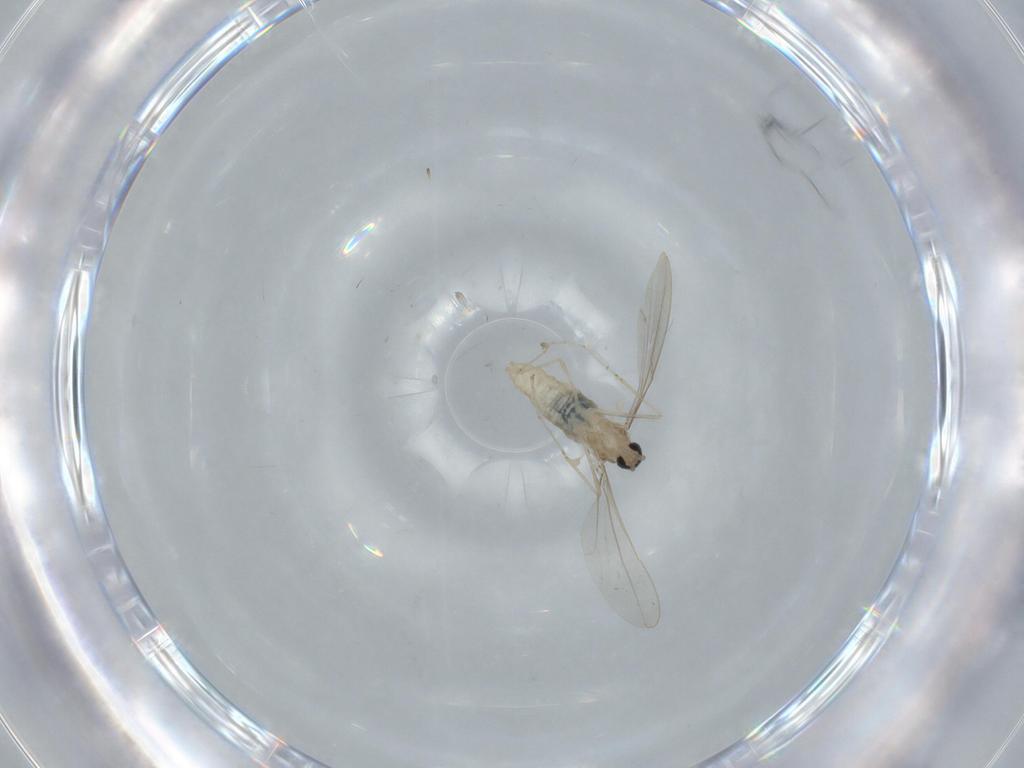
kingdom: Animalia
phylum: Arthropoda
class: Insecta
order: Diptera
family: Cecidomyiidae
